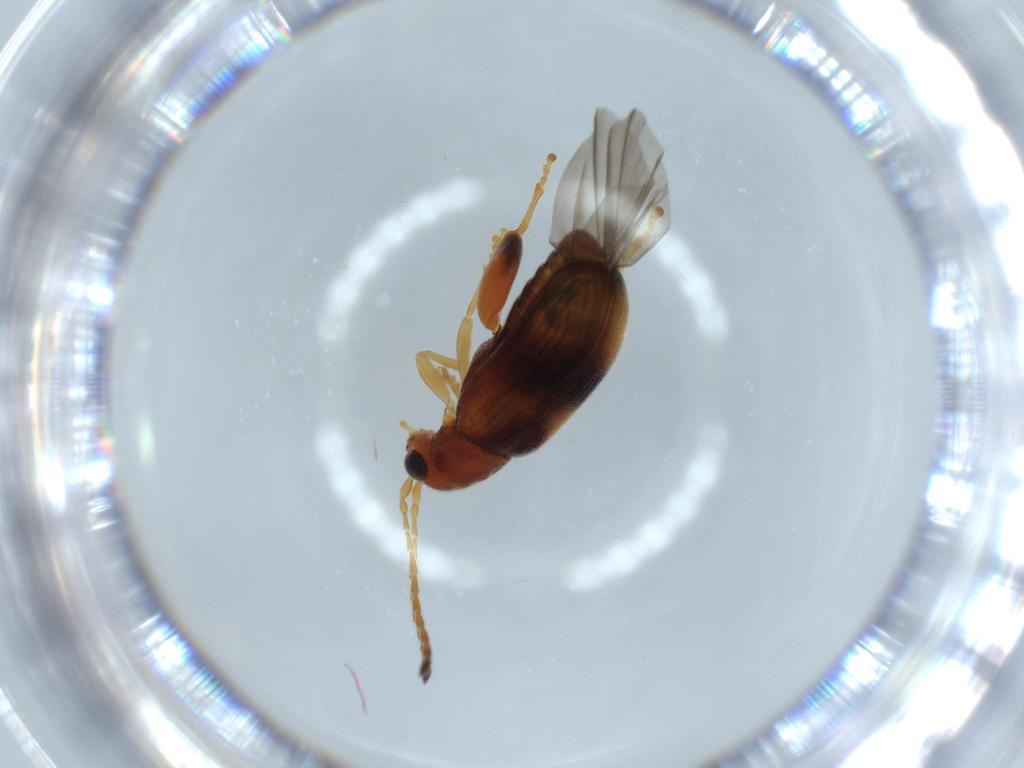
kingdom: Animalia
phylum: Arthropoda
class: Insecta
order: Coleoptera
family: Chrysomelidae
